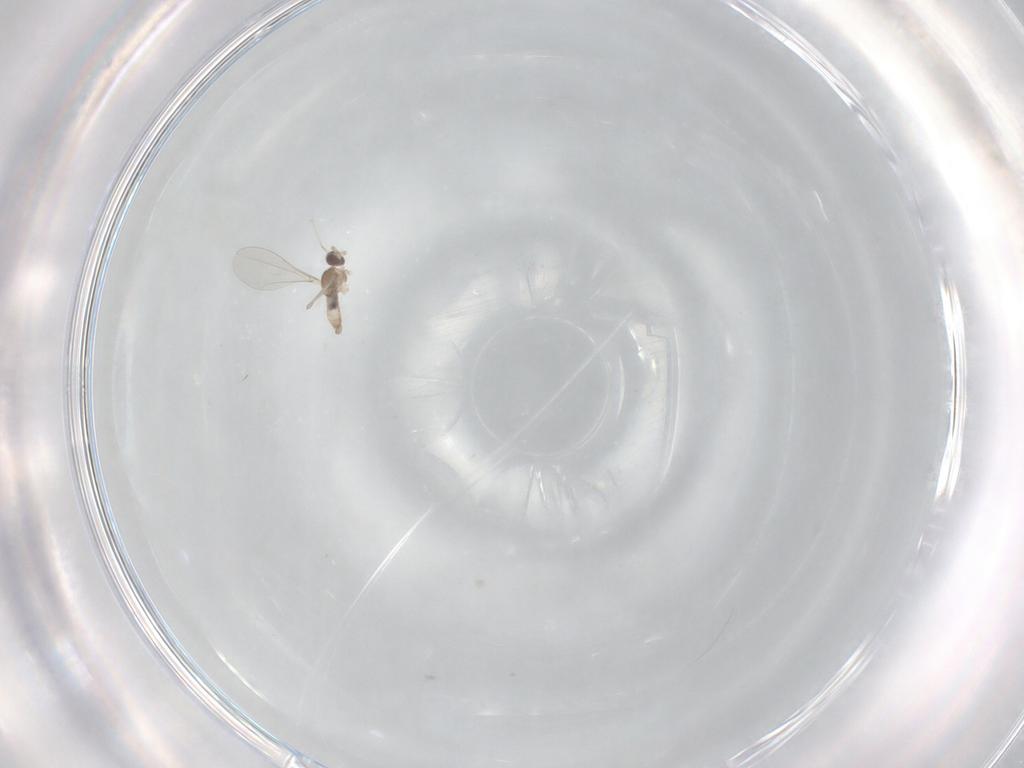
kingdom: Animalia
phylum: Arthropoda
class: Insecta
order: Diptera
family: Cecidomyiidae
